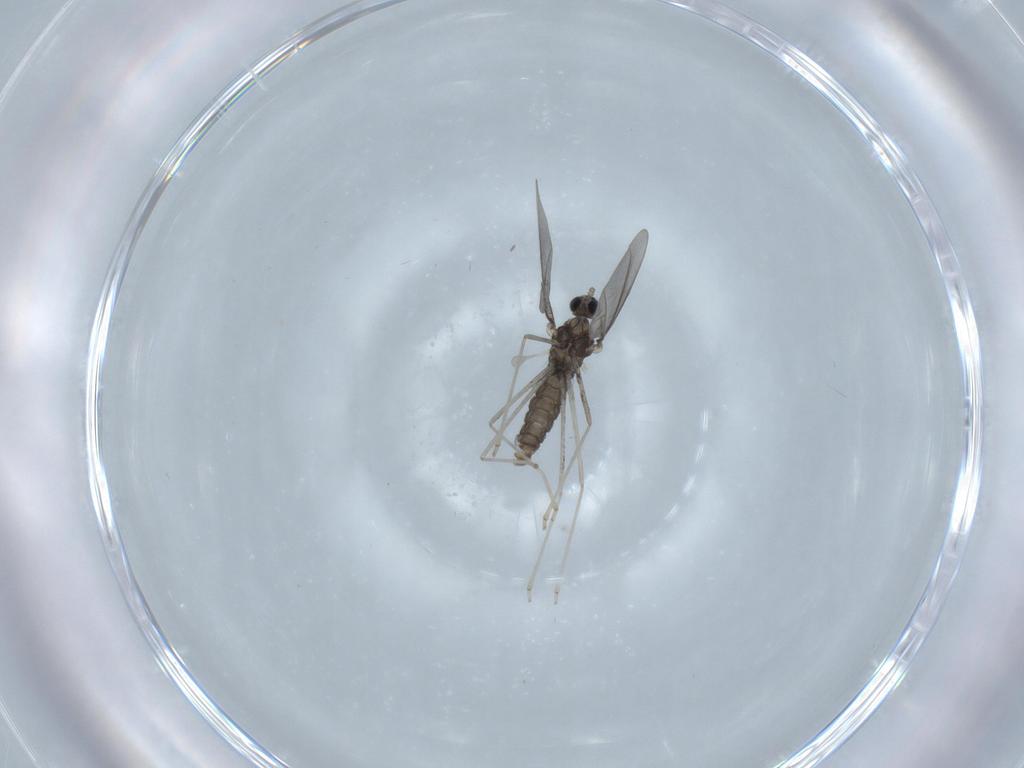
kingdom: Animalia
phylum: Arthropoda
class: Insecta
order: Diptera
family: Cecidomyiidae
